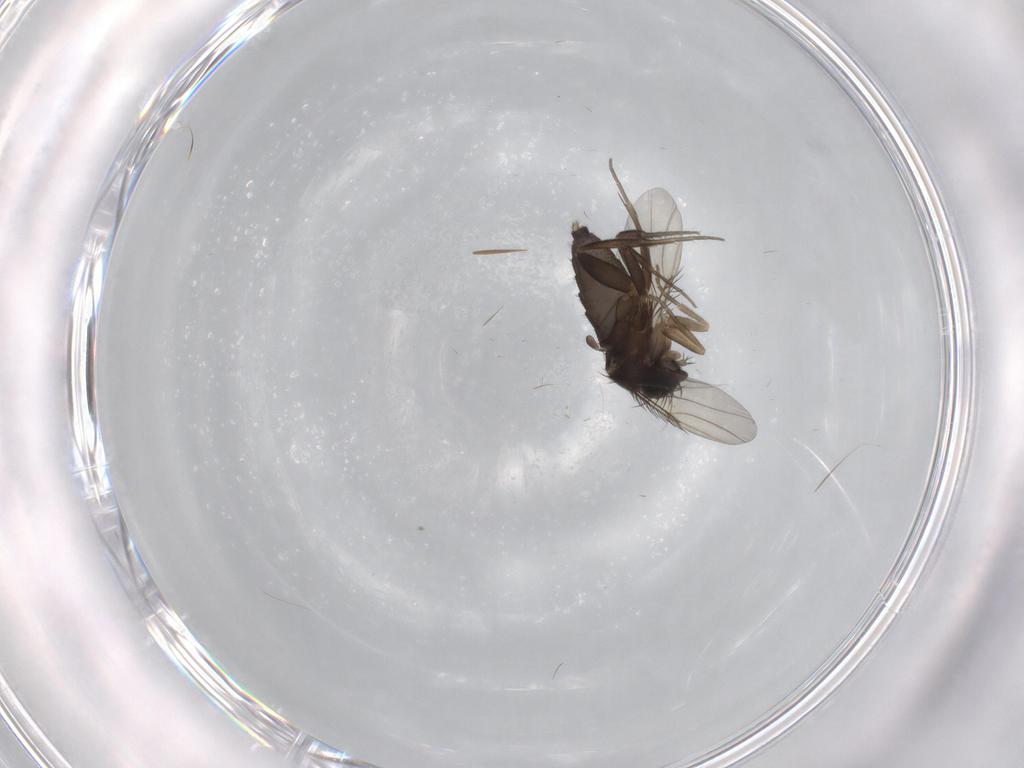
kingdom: Animalia
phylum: Arthropoda
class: Insecta
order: Diptera
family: Phoridae
